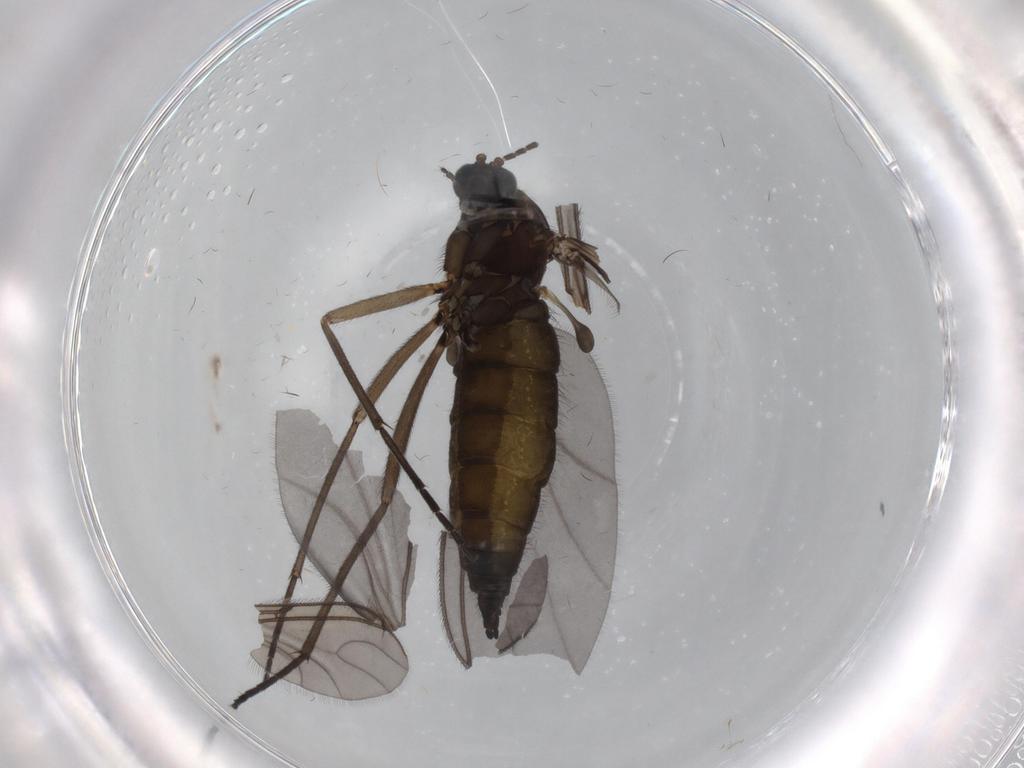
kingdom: Animalia
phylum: Arthropoda
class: Insecta
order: Diptera
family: Sciaridae
